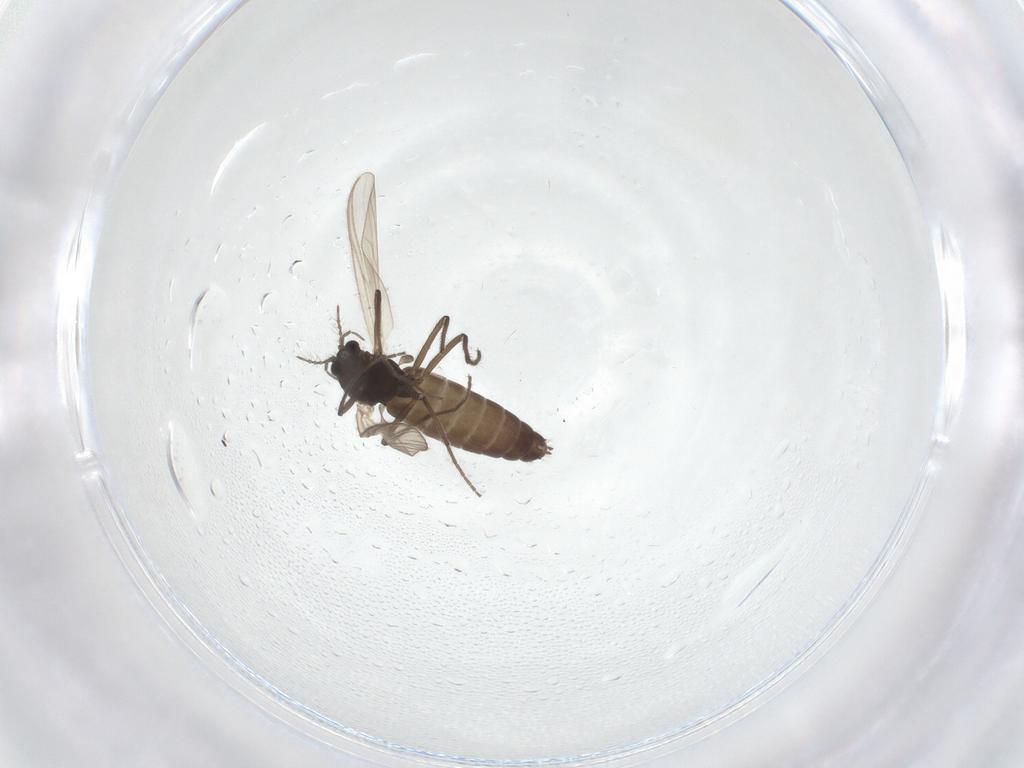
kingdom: Animalia
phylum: Arthropoda
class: Insecta
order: Diptera
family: Chironomidae
